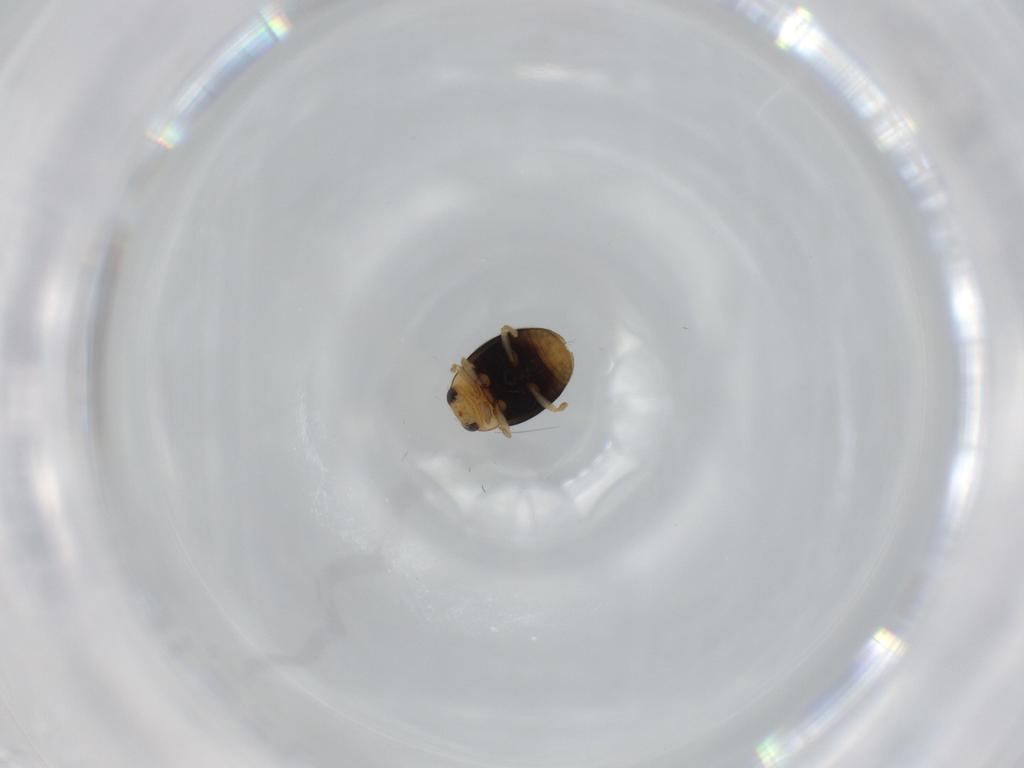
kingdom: Animalia
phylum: Arthropoda
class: Insecta
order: Coleoptera
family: Coccinellidae
